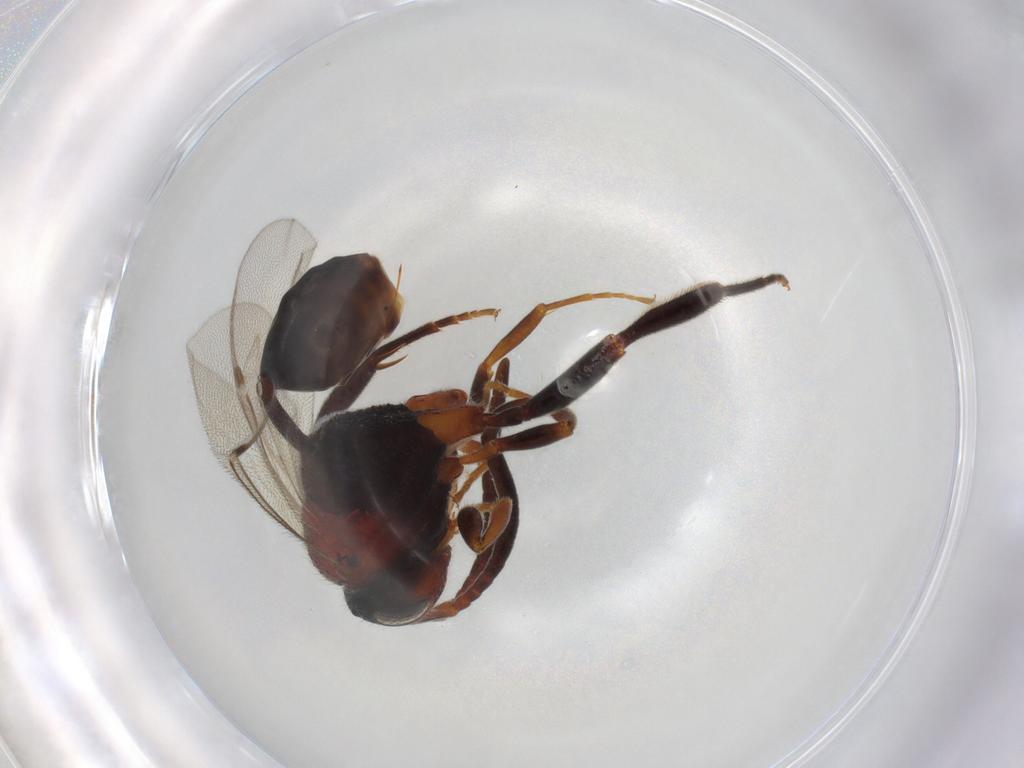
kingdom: Animalia
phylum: Arthropoda
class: Insecta
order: Hymenoptera
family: Evaniidae
